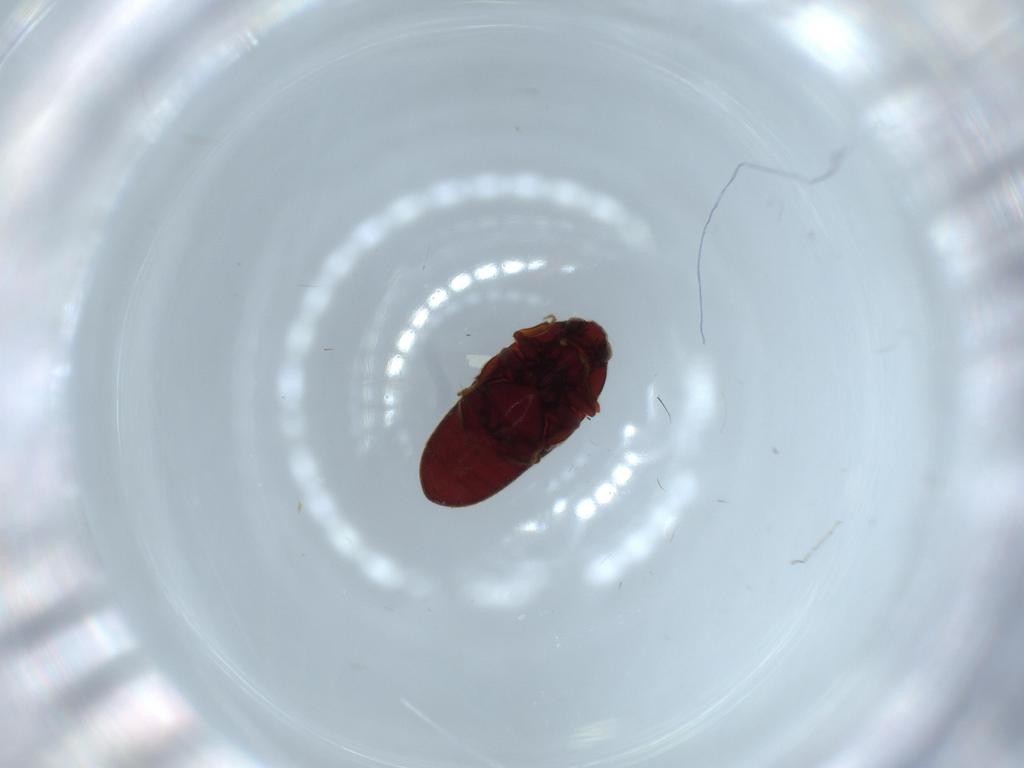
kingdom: Animalia
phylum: Arthropoda
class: Insecta
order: Coleoptera
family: Throscidae
